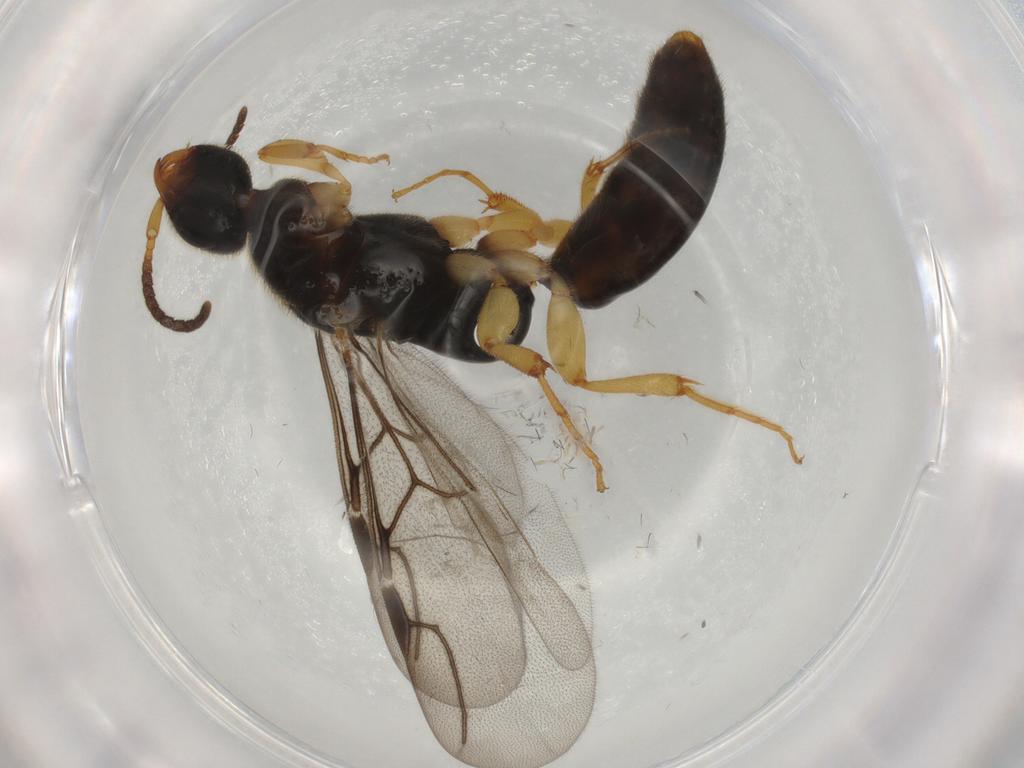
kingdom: Animalia
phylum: Arthropoda
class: Insecta
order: Hymenoptera
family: Bethylidae
